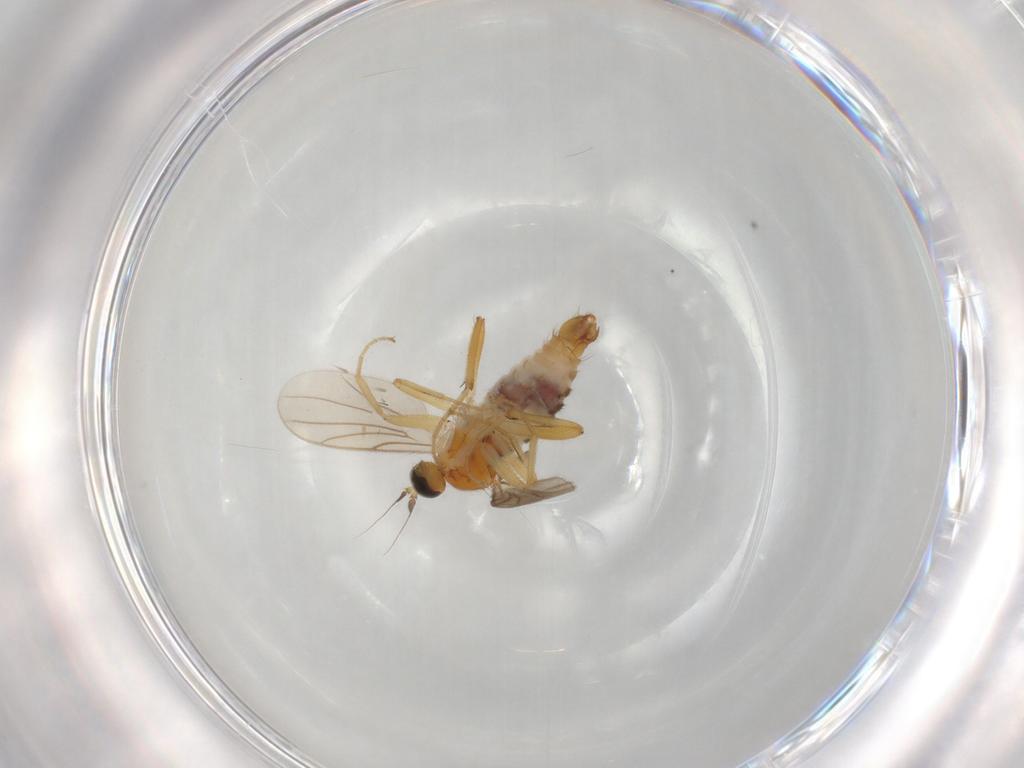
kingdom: Animalia
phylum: Arthropoda
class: Insecta
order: Diptera
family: Hybotidae
